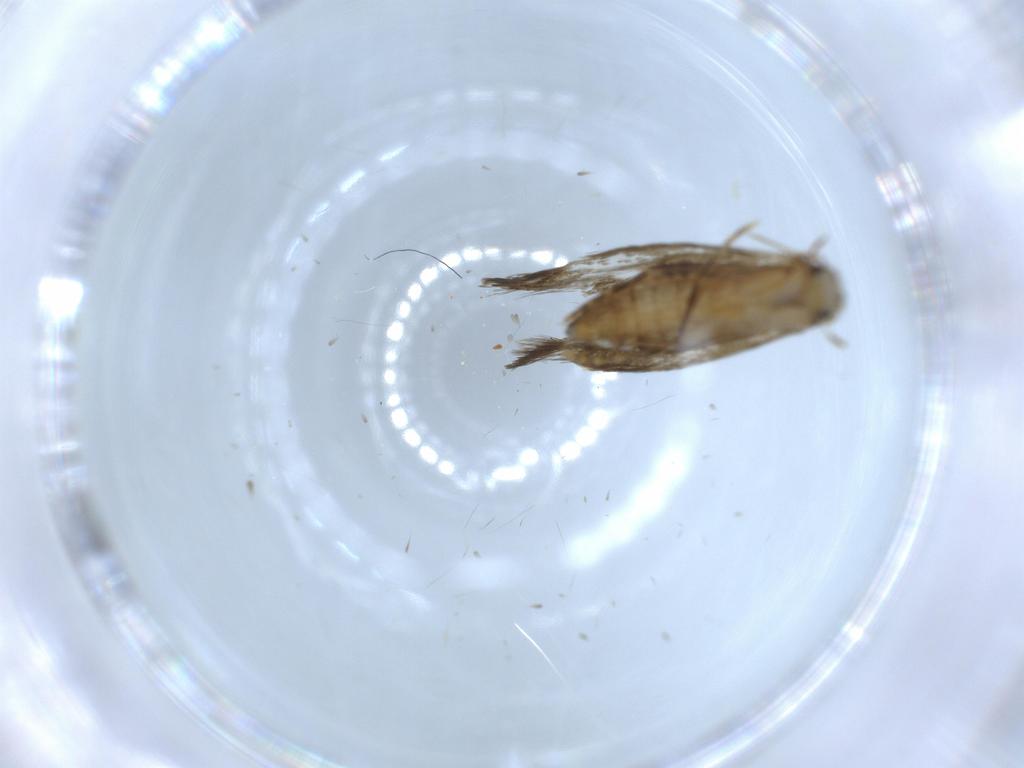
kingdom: Animalia
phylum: Arthropoda
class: Insecta
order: Lepidoptera
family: Tineidae
